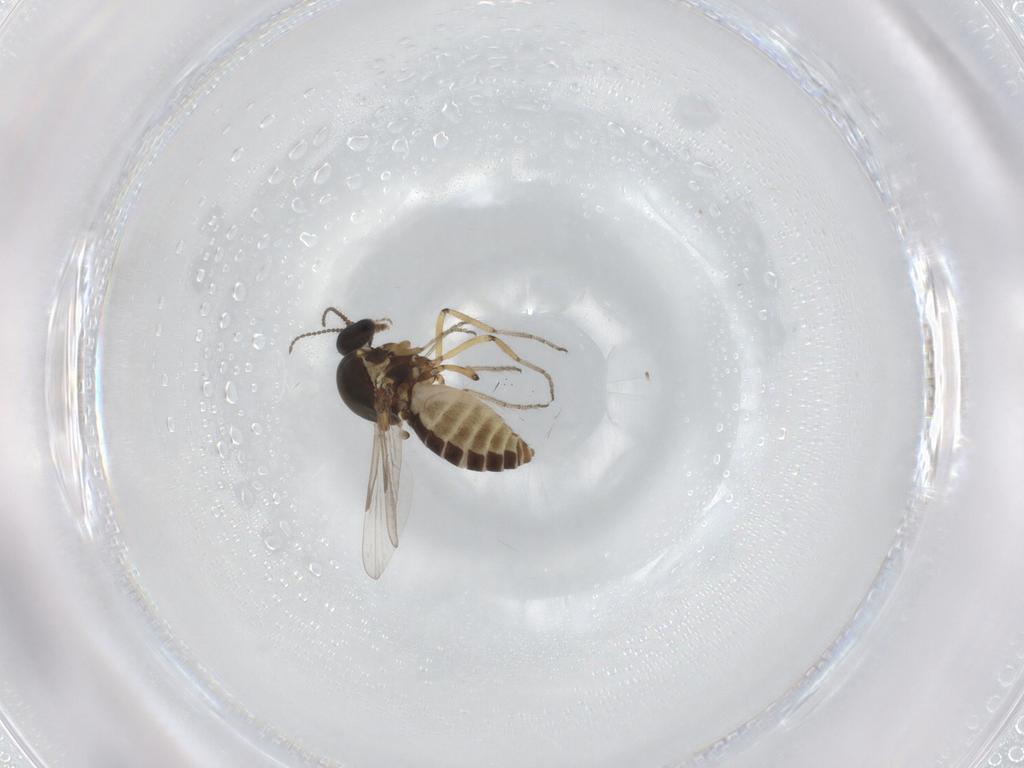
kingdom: Animalia
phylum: Arthropoda
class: Insecta
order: Diptera
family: Ceratopogonidae
